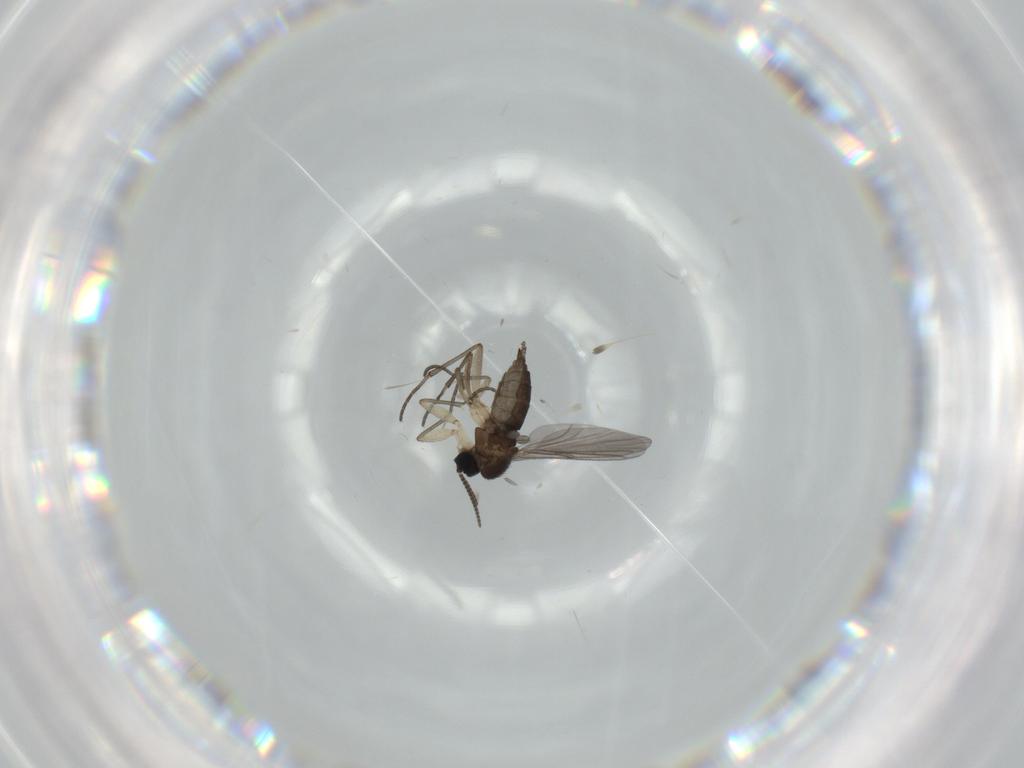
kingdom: Animalia
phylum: Arthropoda
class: Insecta
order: Diptera
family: Sciaridae
